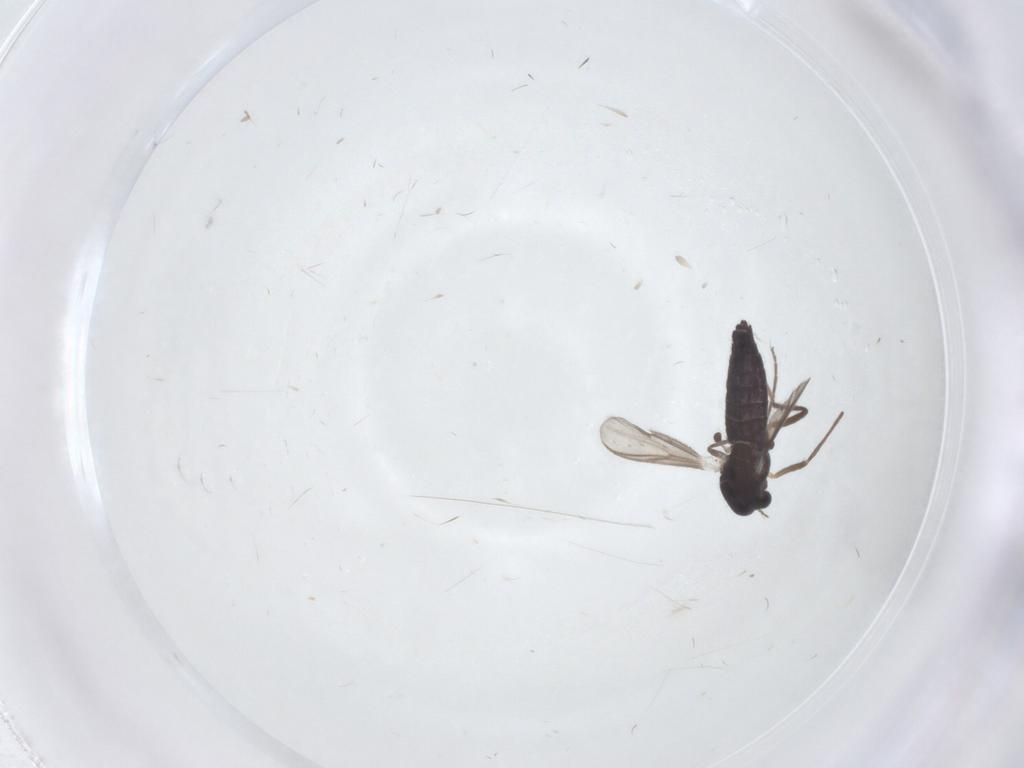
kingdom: Animalia
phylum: Arthropoda
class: Insecta
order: Diptera
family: Chironomidae
